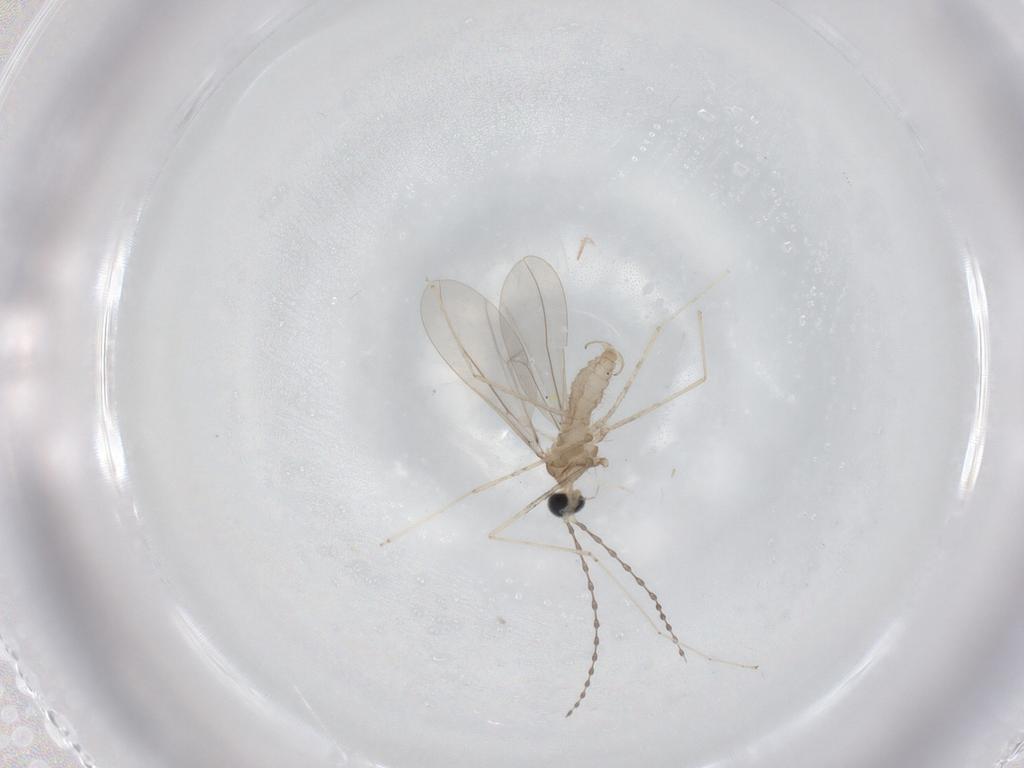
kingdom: Animalia
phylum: Arthropoda
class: Insecta
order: Diptera
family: Cecidomyiidae
